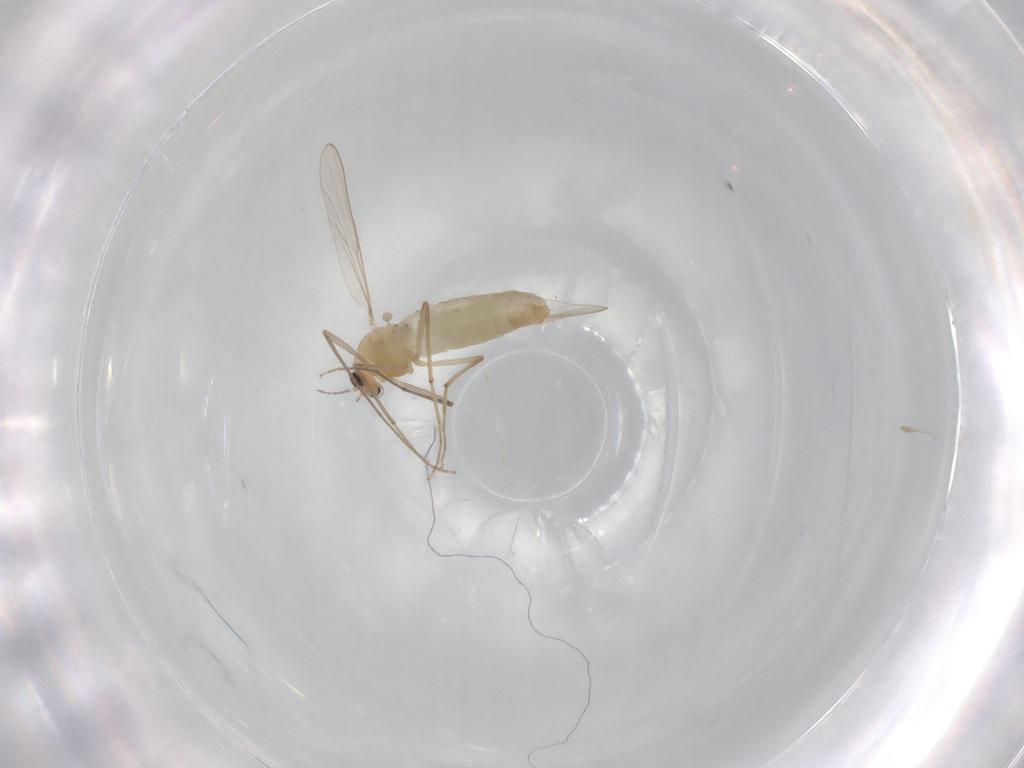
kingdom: Animalia
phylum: Arthropoda
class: Insecta
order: Diptera
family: Chironomidae
